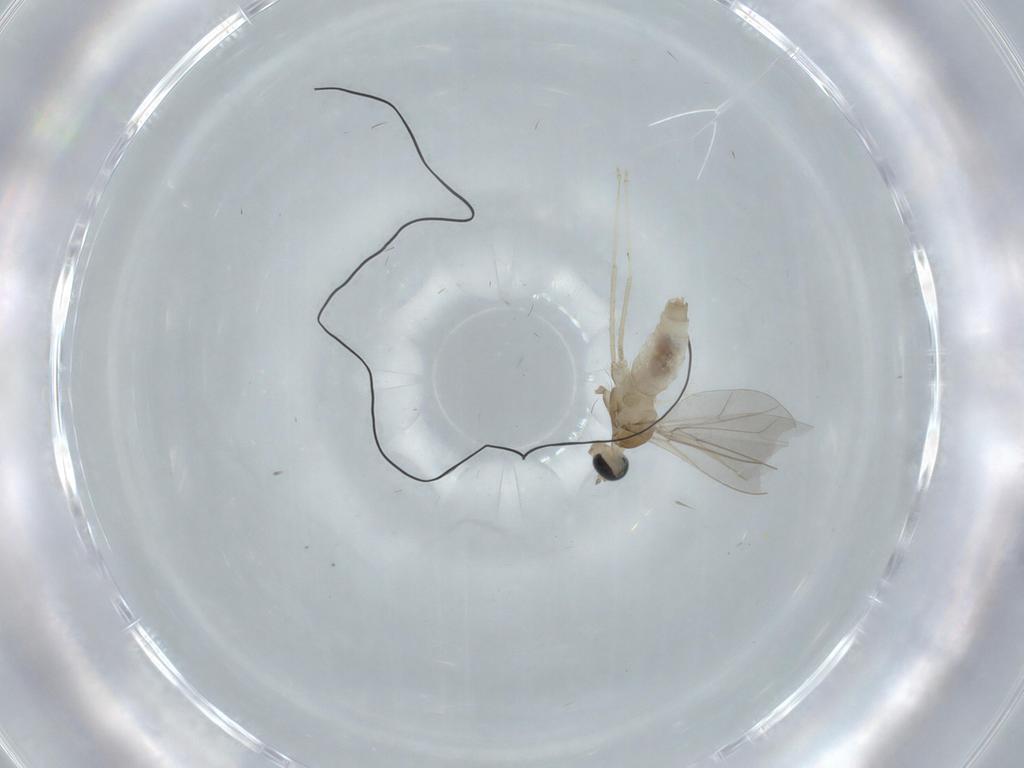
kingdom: Animalia
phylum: Arthropoda
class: Insecta
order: Diptera
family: Cecidomyiidae
